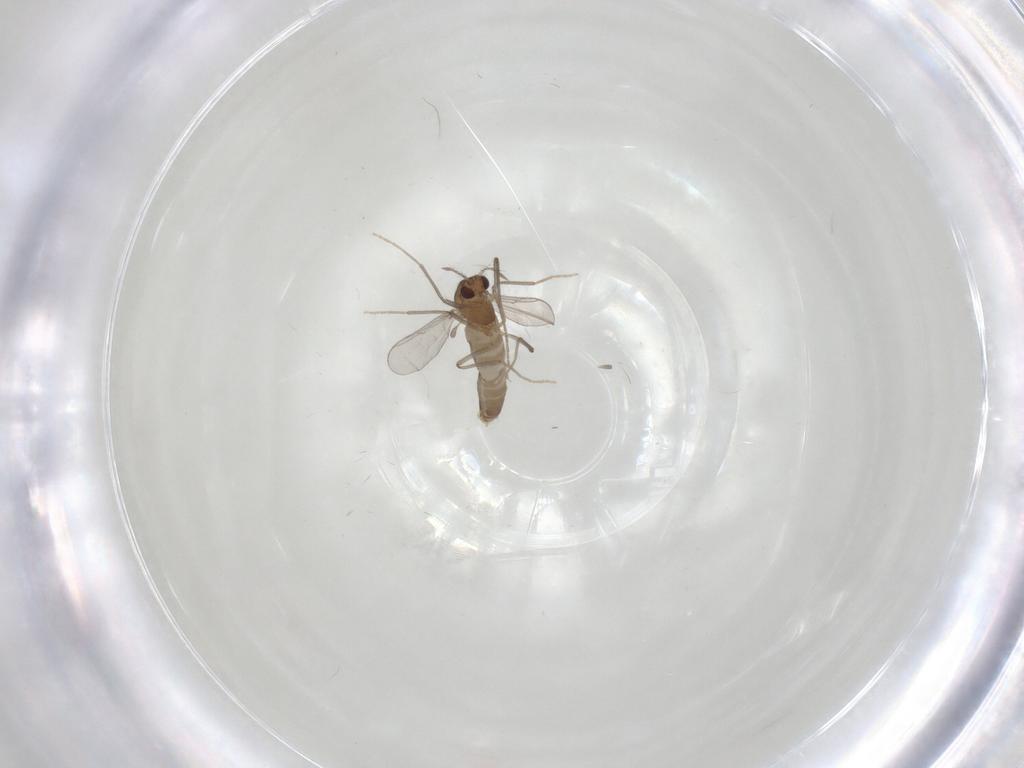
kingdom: Animalia
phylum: Arthropoda
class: Insecta
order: Diptera
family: Chironomidae
